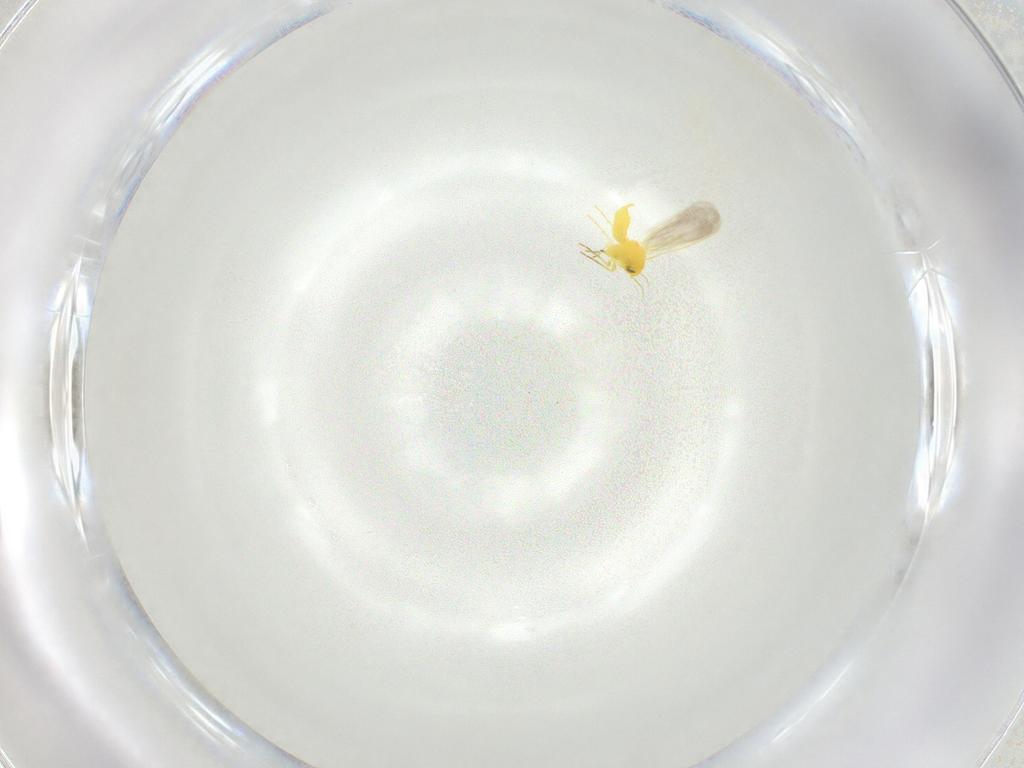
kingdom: Animalia
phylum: Arthropoda
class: Insecta
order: Hemiptera
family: Aleyrodidae
